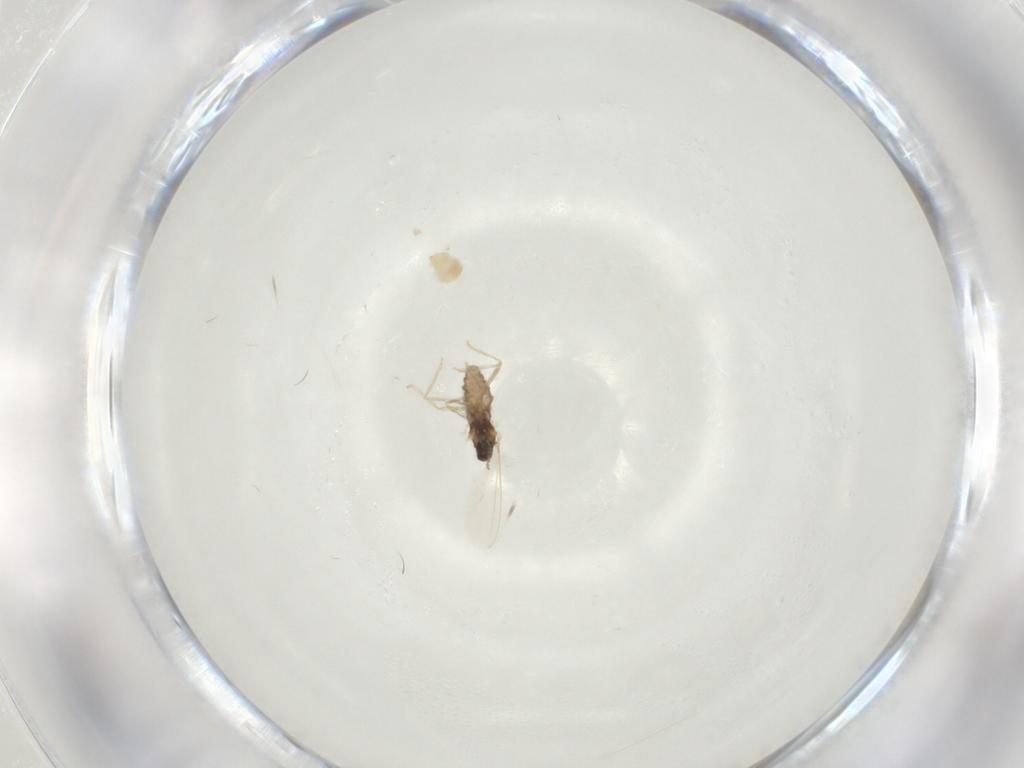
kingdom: Animalia
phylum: Arthropoda
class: Insecta
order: Diptera
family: Cecidomyiidae
